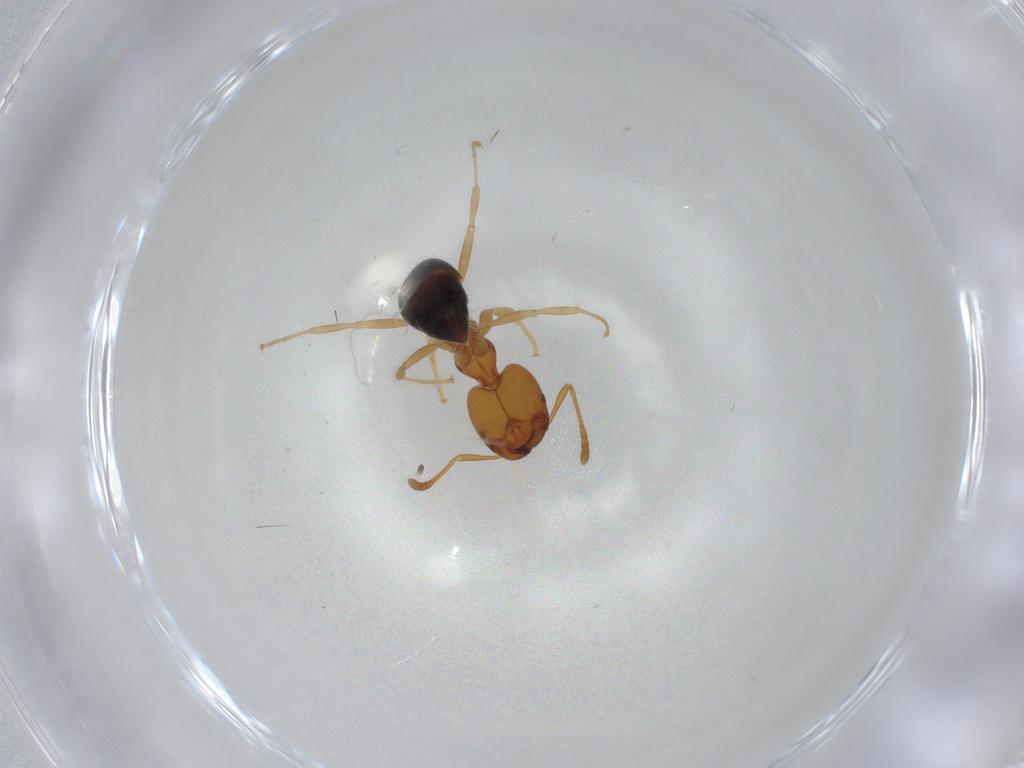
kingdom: Animalia
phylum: Arthropoda
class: Insecta
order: Hymenoptera
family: Formicidae
